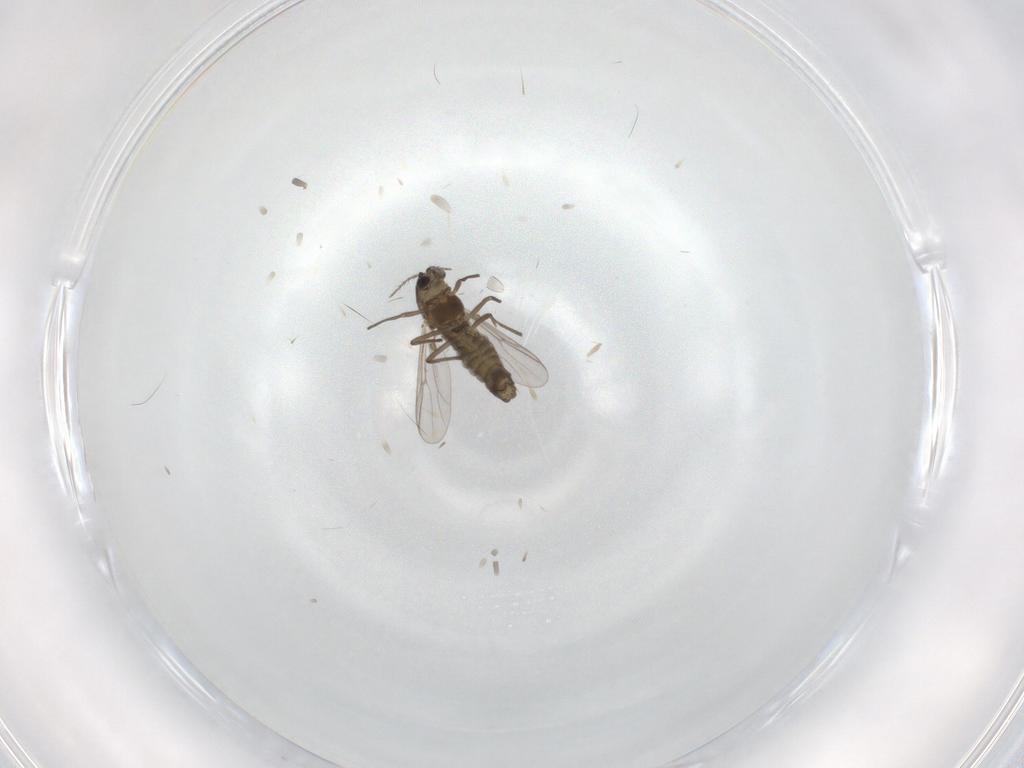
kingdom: Animalia
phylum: Arthropoda
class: Insecta
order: Diptera
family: Chironomidae
